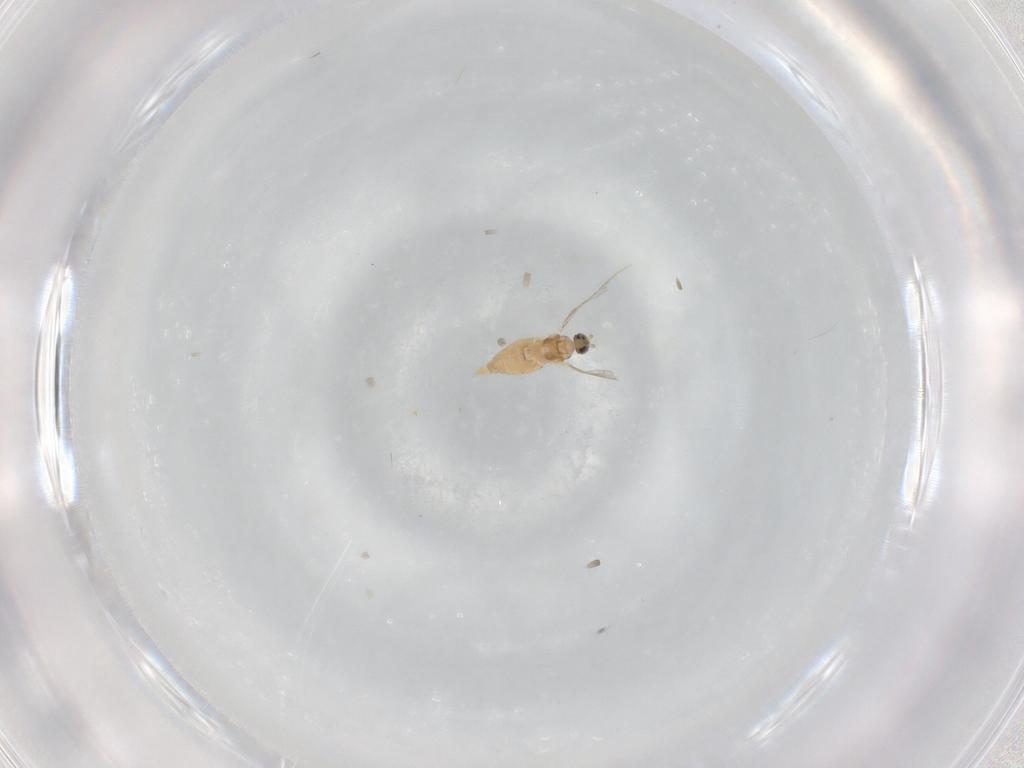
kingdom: Animalia
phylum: Arthropoda
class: Insecta
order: Diptera
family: Cecidomyiidae
